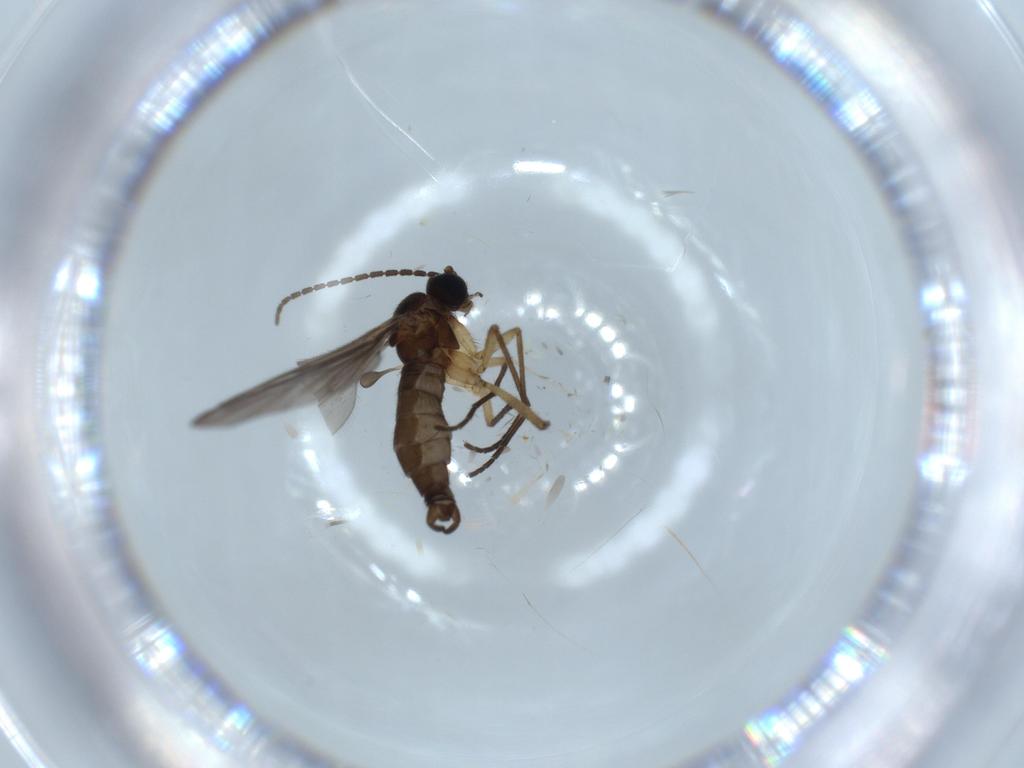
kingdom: Animalia
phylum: Arthropoda
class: Insecta
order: Diptera
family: Sciaridae
